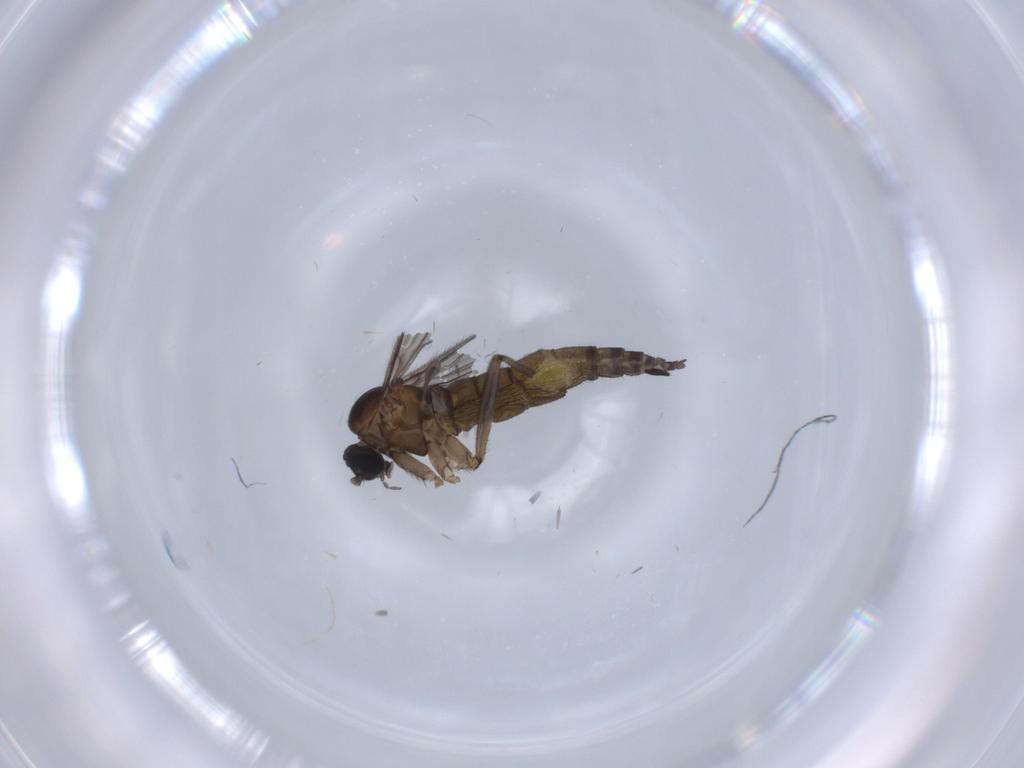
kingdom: Animalia
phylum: Arthropoda
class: Insecta
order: Diptera
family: Sciaridae
